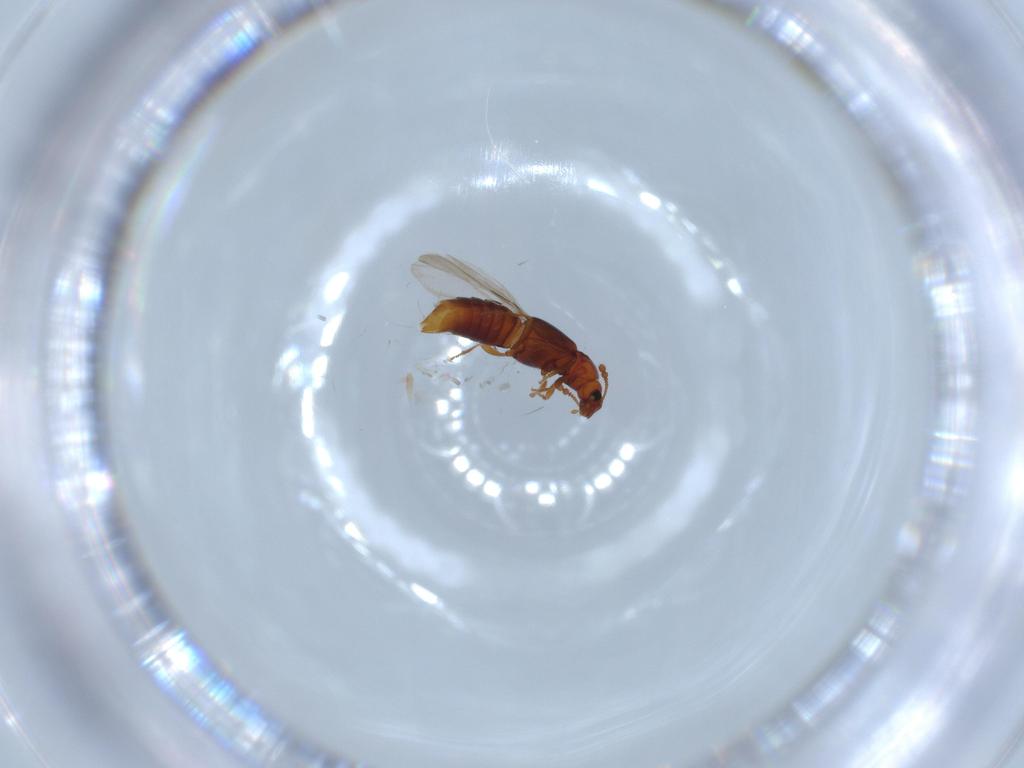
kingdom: Animalia
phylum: Arthropoda
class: Insecta
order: Coleoptera
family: Staphylinidae
